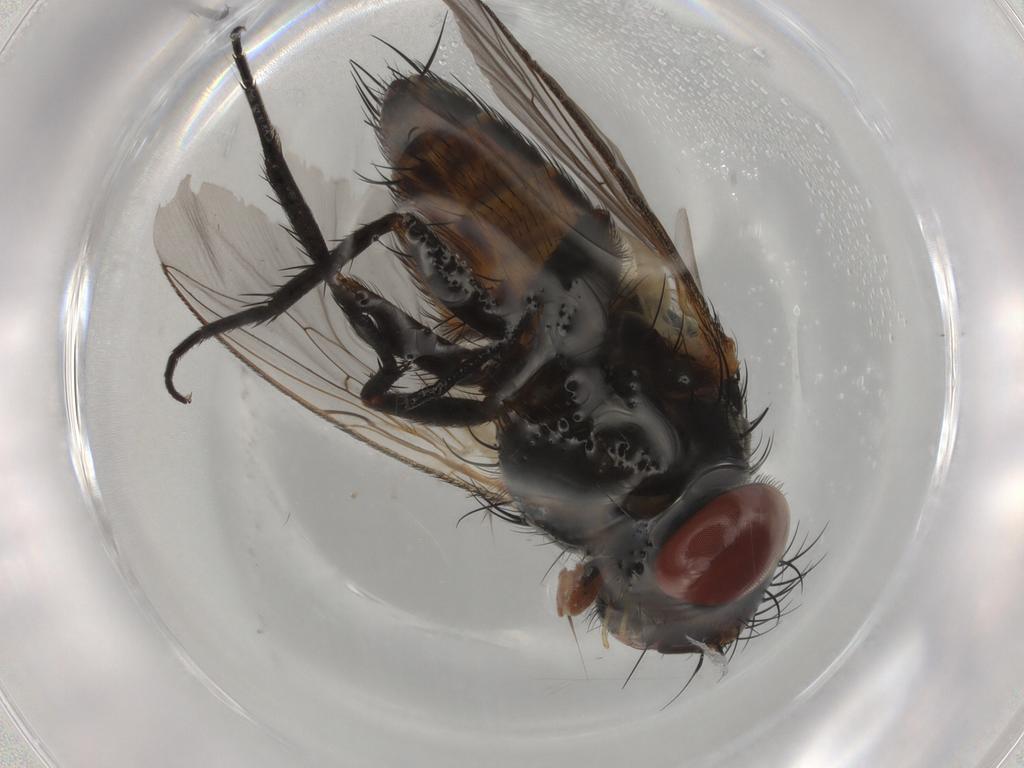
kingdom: Animalia
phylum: Arthropoda
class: Insecta
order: Diptera
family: Sarcophagidae
